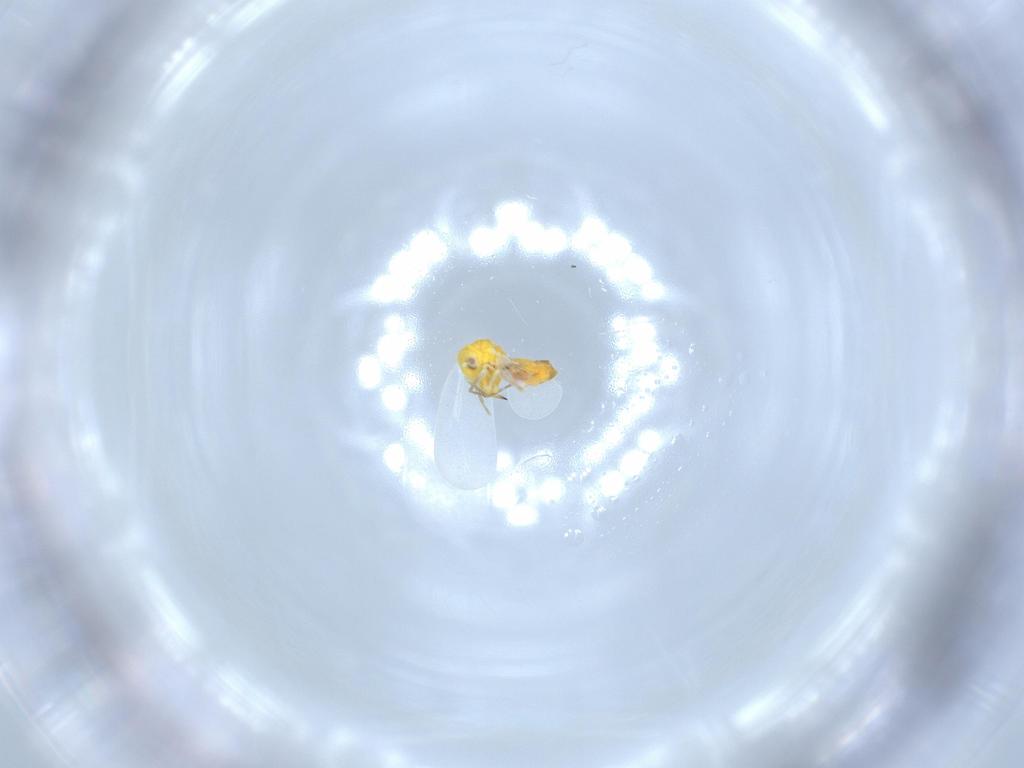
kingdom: Animalia
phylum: Arthropoda
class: Insecta
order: Hemiptera
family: Aleyrodidae
